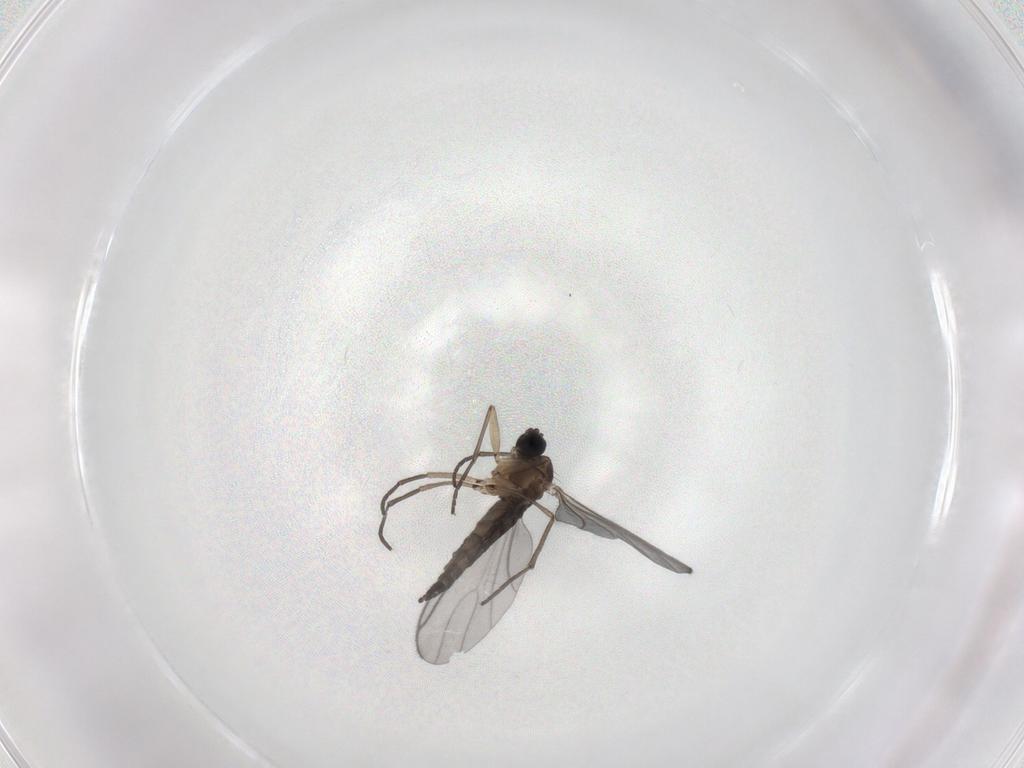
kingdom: Animalia
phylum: Arthropoda
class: Insecta
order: Diptera
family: Sciaridae
